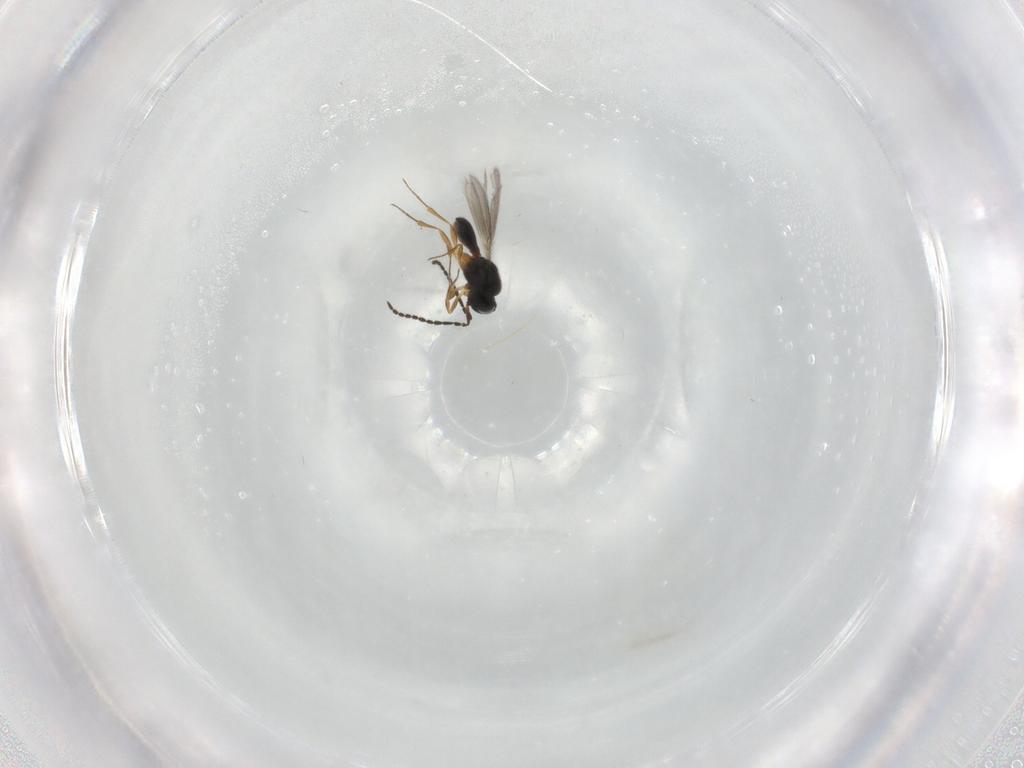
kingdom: Animalia
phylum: Arthropoda
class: Insecta
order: Hymenoptera
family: Scelionidae
